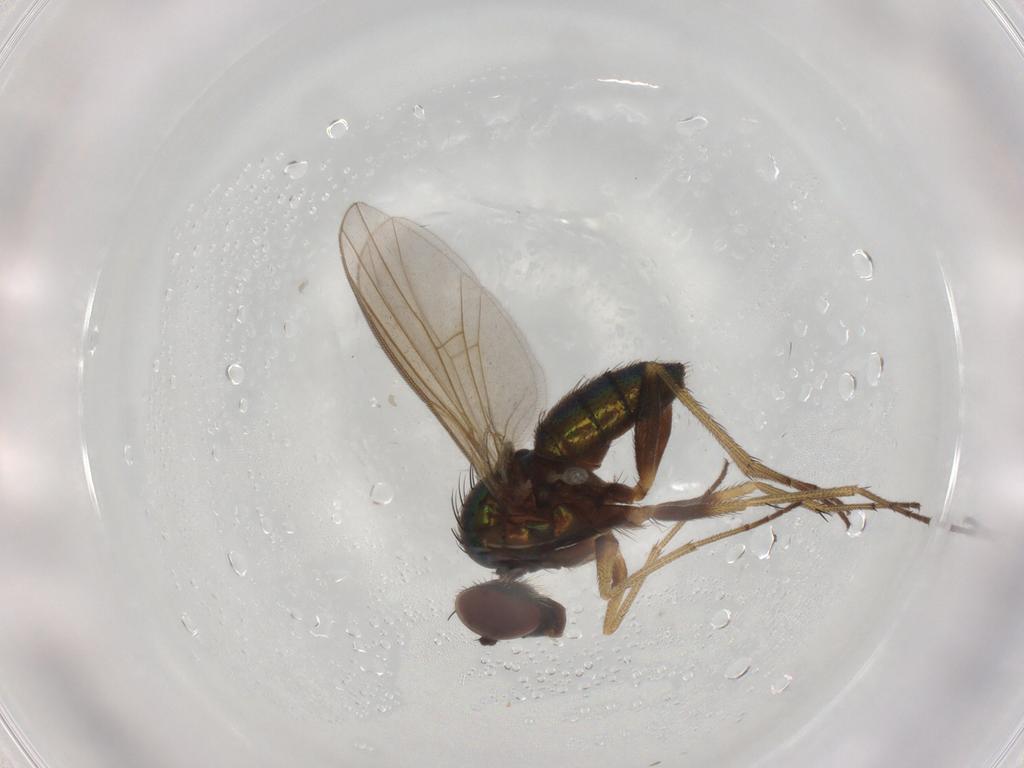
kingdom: Animalia
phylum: Arthropoda
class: Insecta
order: Diptera
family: Dolichopodidae
